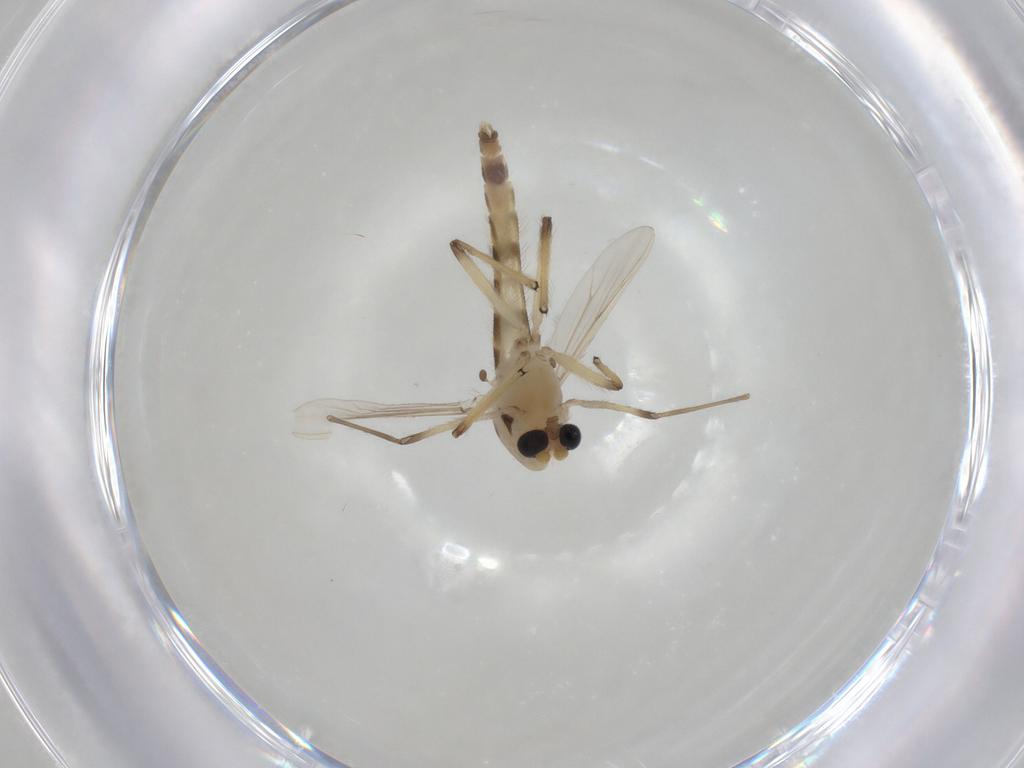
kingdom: Animalia
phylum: Arthropoda
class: Insecta
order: Diptera
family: Chironomidae
